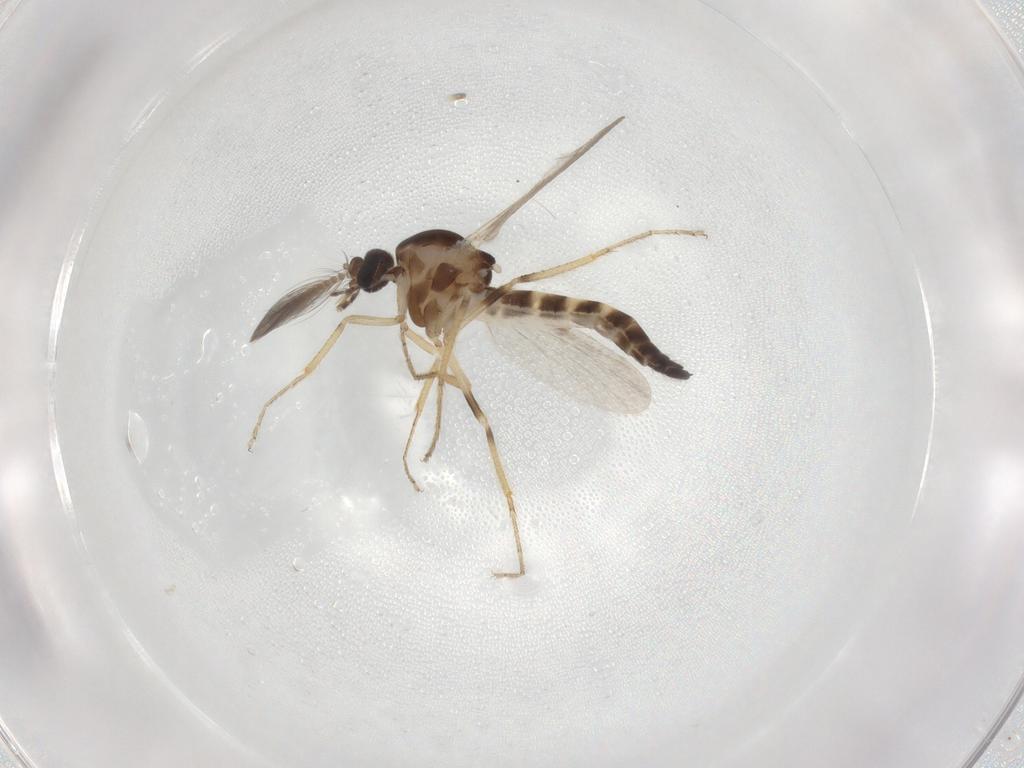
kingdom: Animalia
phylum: Arthropoda
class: Insecta
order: Diptera
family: Ceratopogonidae
